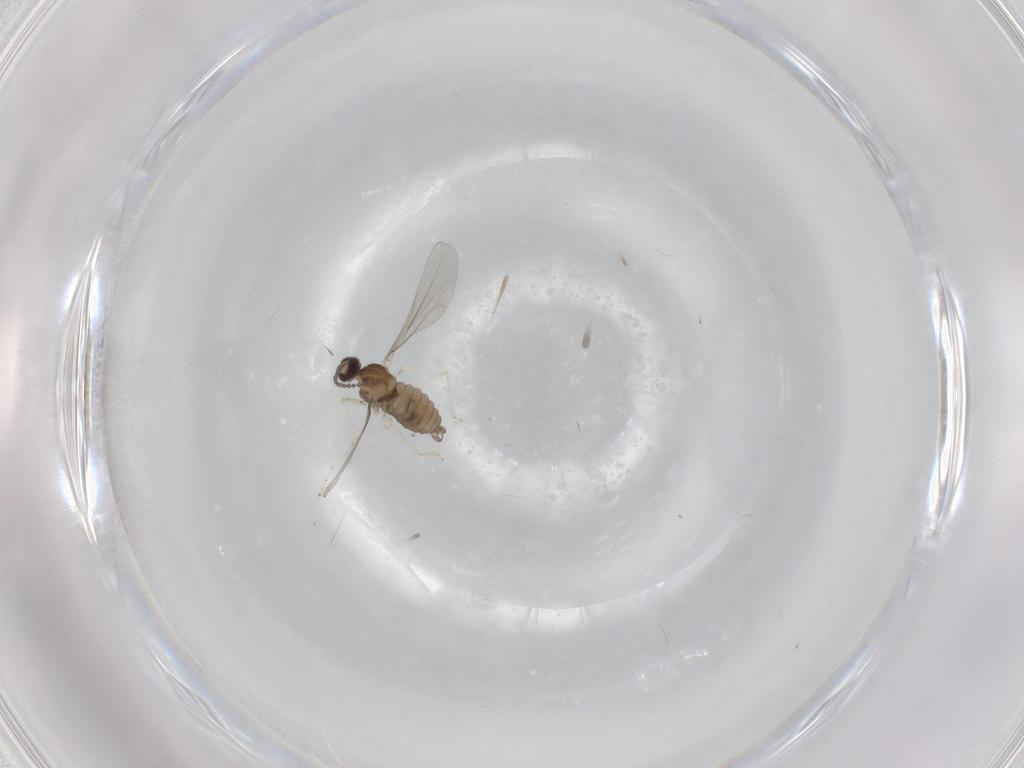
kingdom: Animalia
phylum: Arthropoda
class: Insecta
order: Diptera
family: Cecidomyiidae
